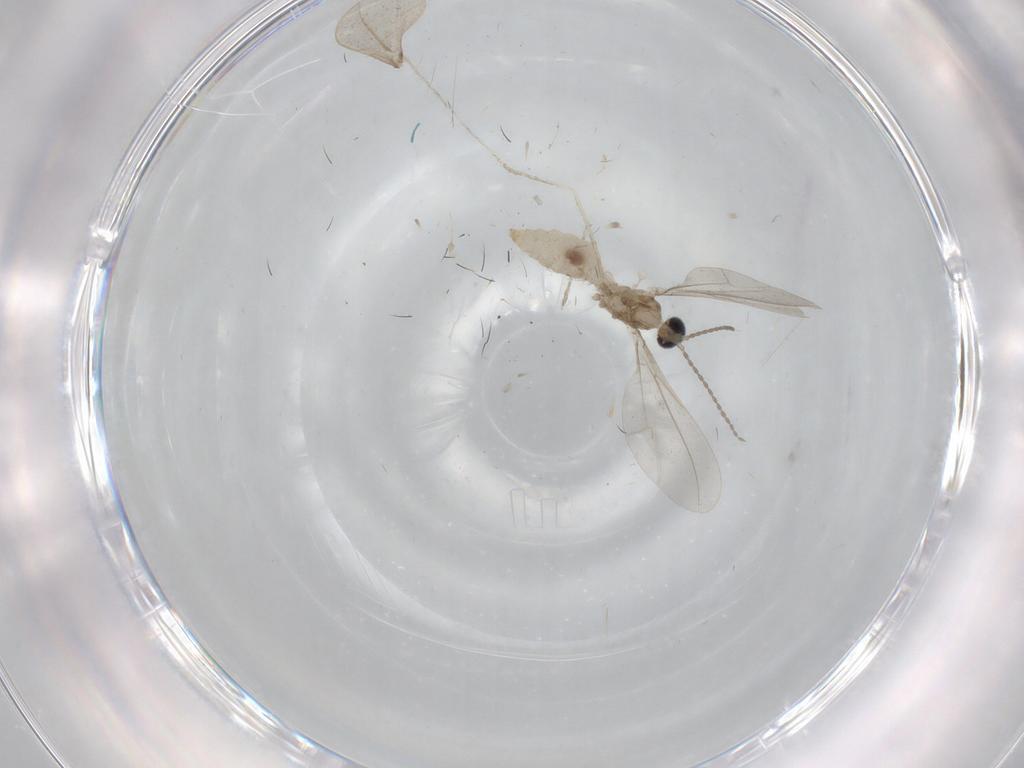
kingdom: Animalia
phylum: Arthropoda
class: Insecta
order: Diptera
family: Cecidomyiidae
